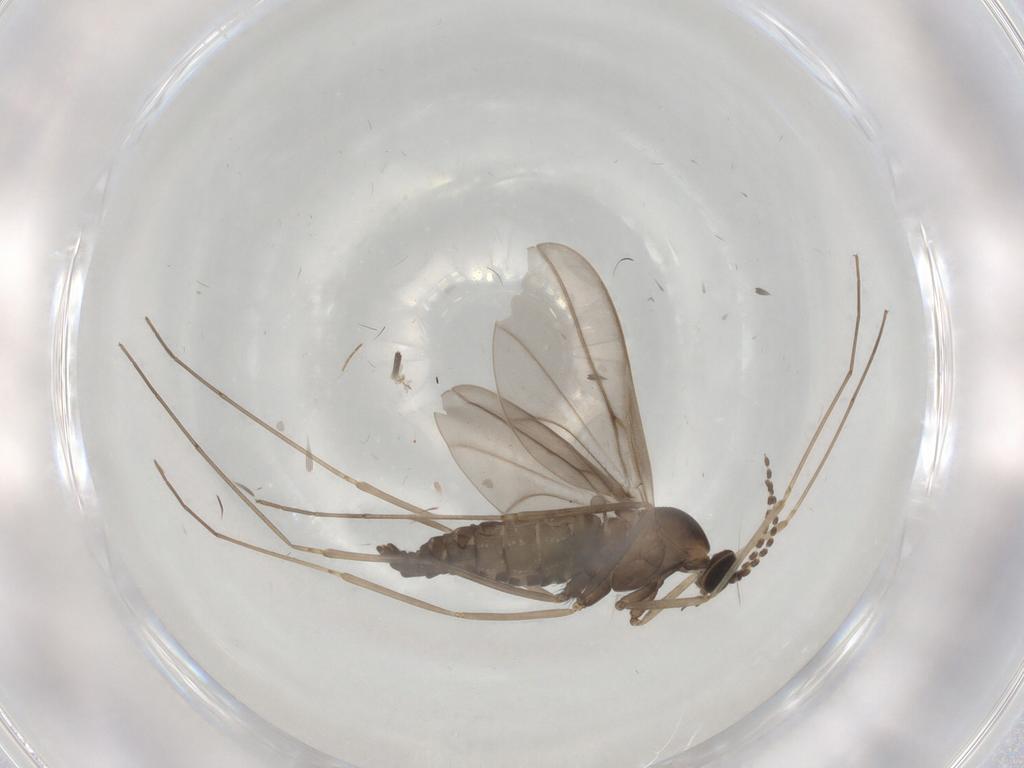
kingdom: Animalia
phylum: Arthropoda
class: Insecta
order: Diptera
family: Cecidomyiidae
